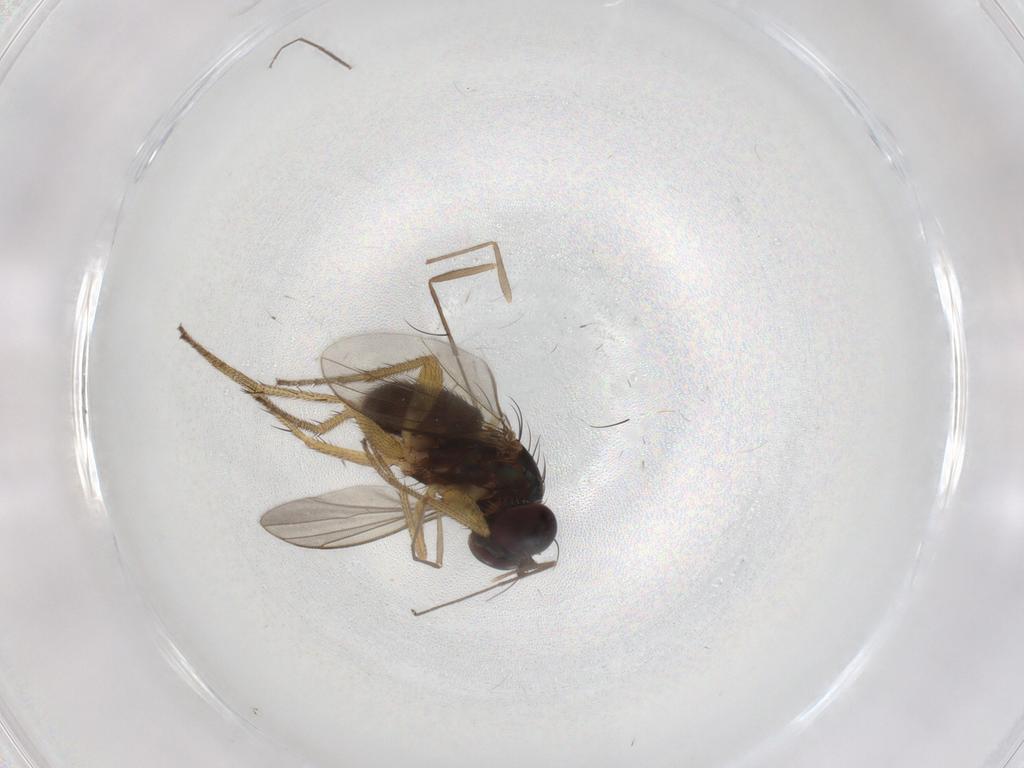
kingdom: Animalia
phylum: Arthropoda
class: Insecta
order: Diptera
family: Chironomidae
